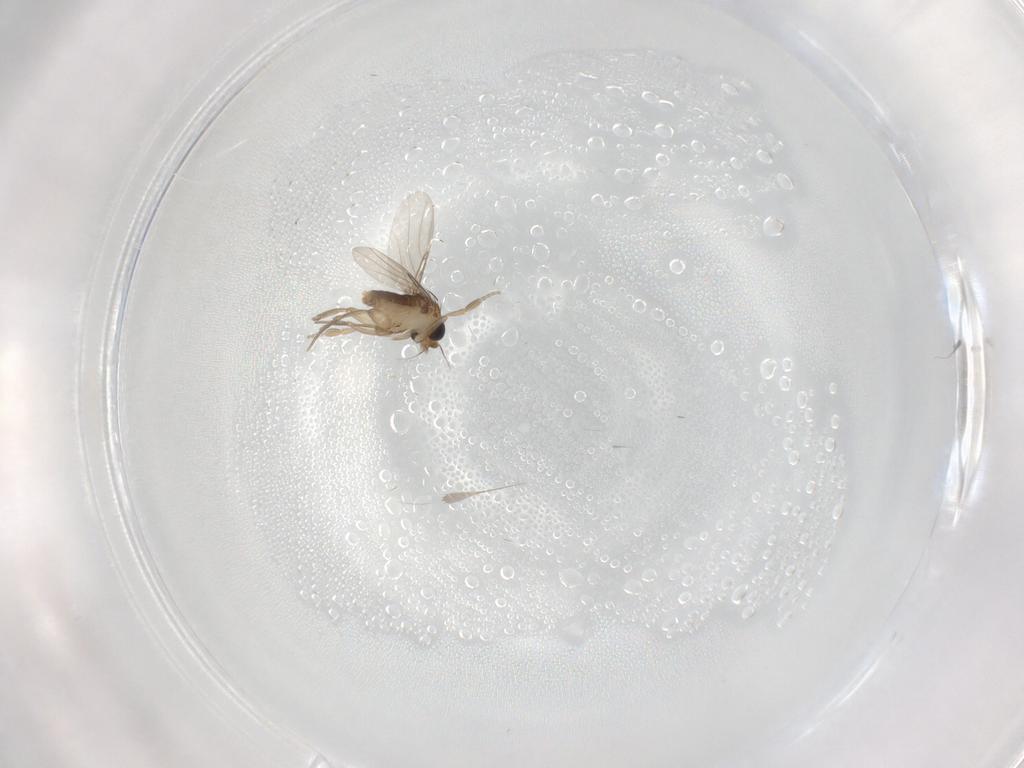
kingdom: Animalia
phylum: Arthropoda
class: Insecta
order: Diptera
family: Phoridae
